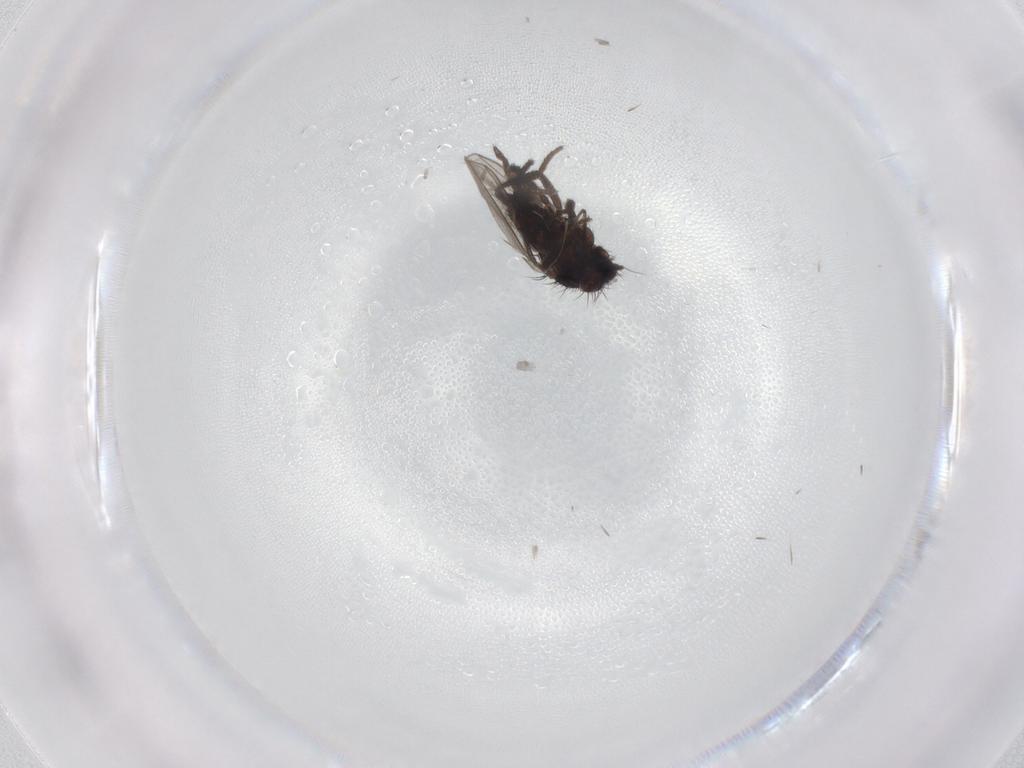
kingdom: Animalia
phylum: Arthropoda
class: Insecta
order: Diptera
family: Milichiidae
